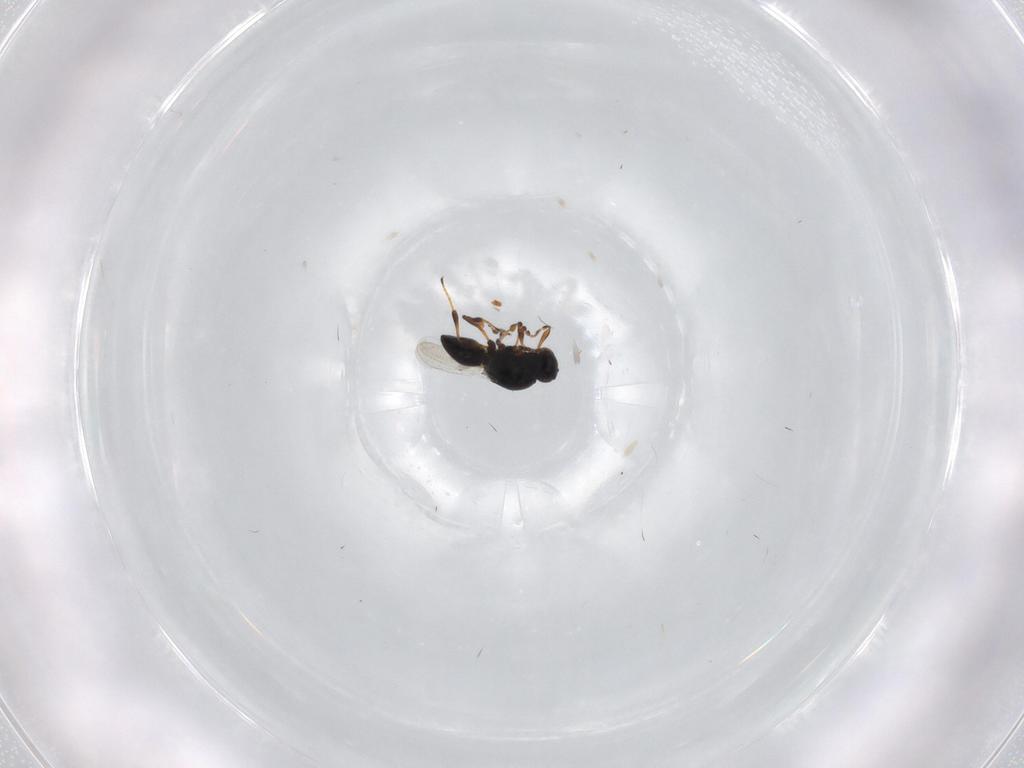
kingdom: Animalia
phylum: Arthropoda
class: Insecta
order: Hymenoptera
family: Platygastridae
